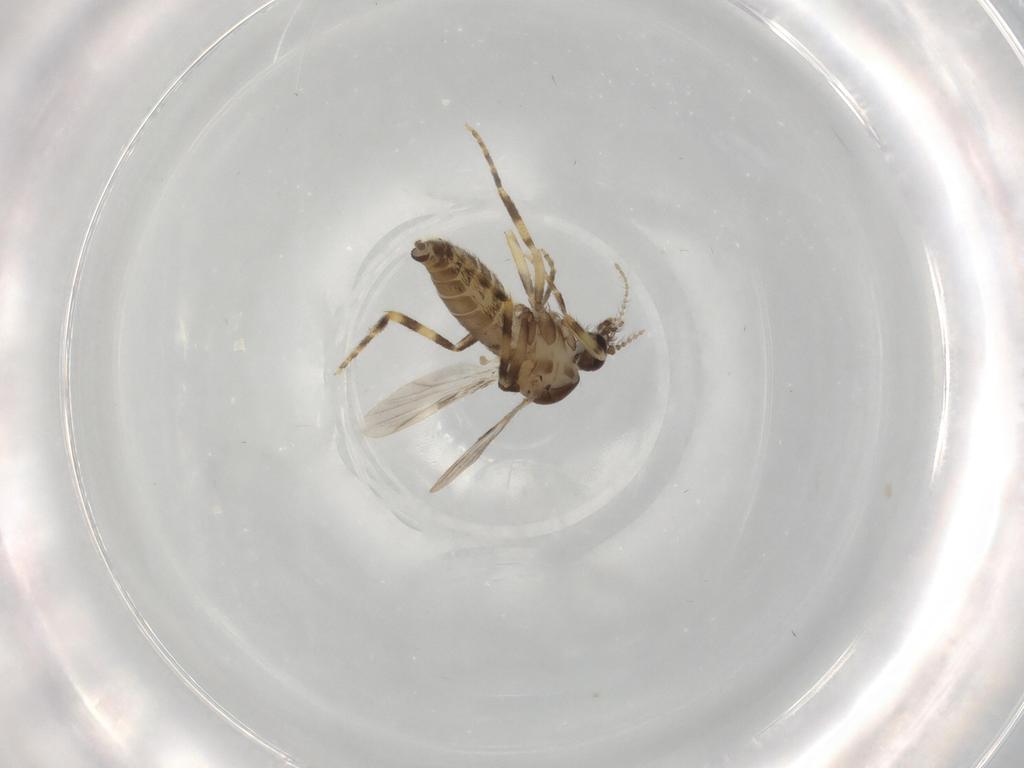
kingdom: Animalia
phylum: Arthropoda
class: Insecta
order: Diptera
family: Ceratopogonidae
